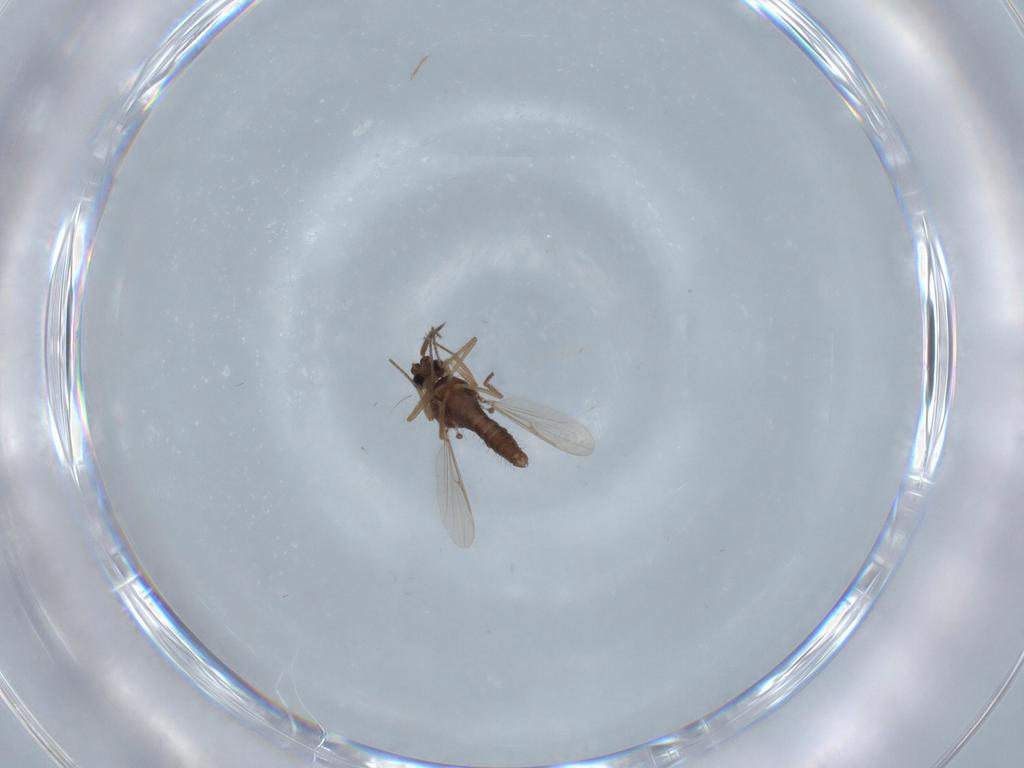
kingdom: Animalia
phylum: Arthropoda
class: Insecta
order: Diptera
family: Ceratopogonidae
